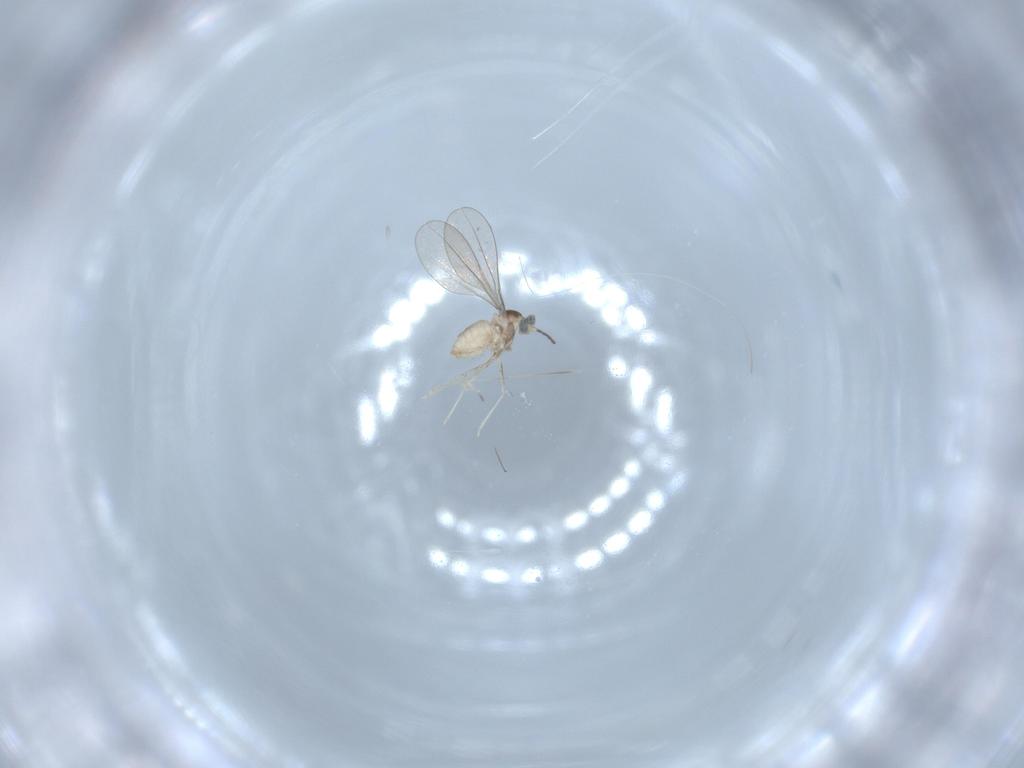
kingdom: Animalia
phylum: Arthropoda
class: Insecta
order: Diptera
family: Cecidomyiidae
